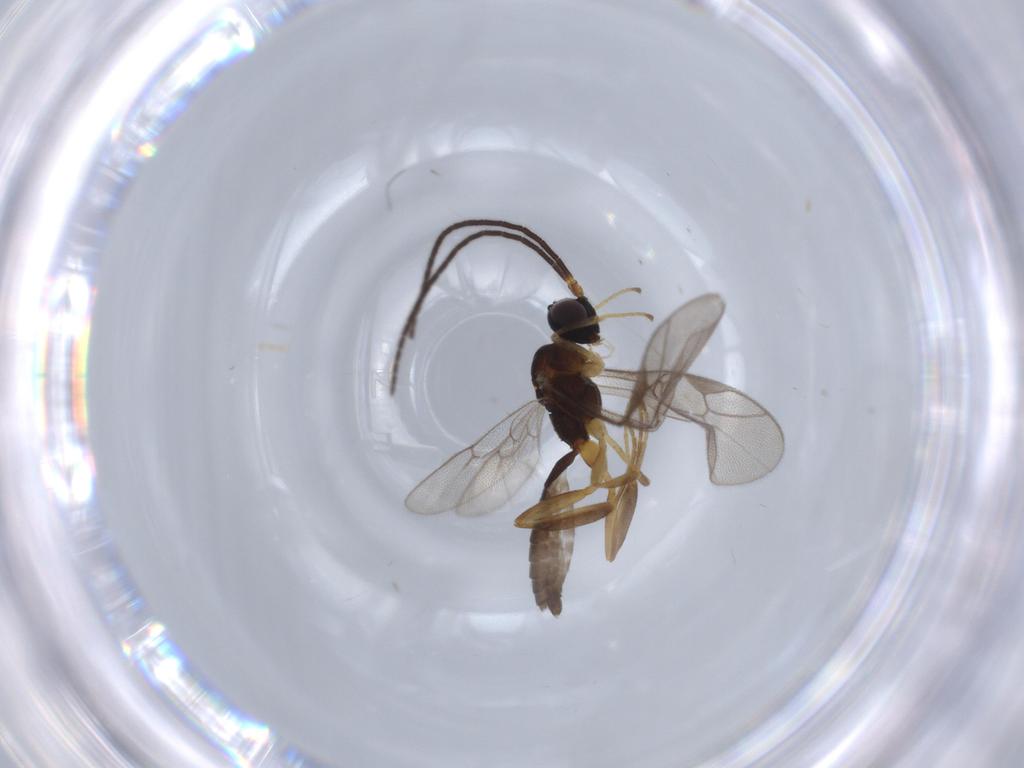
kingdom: Animalia
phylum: Arthropoda
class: Insecta
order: Hymenoptera
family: Ichneumonidae
